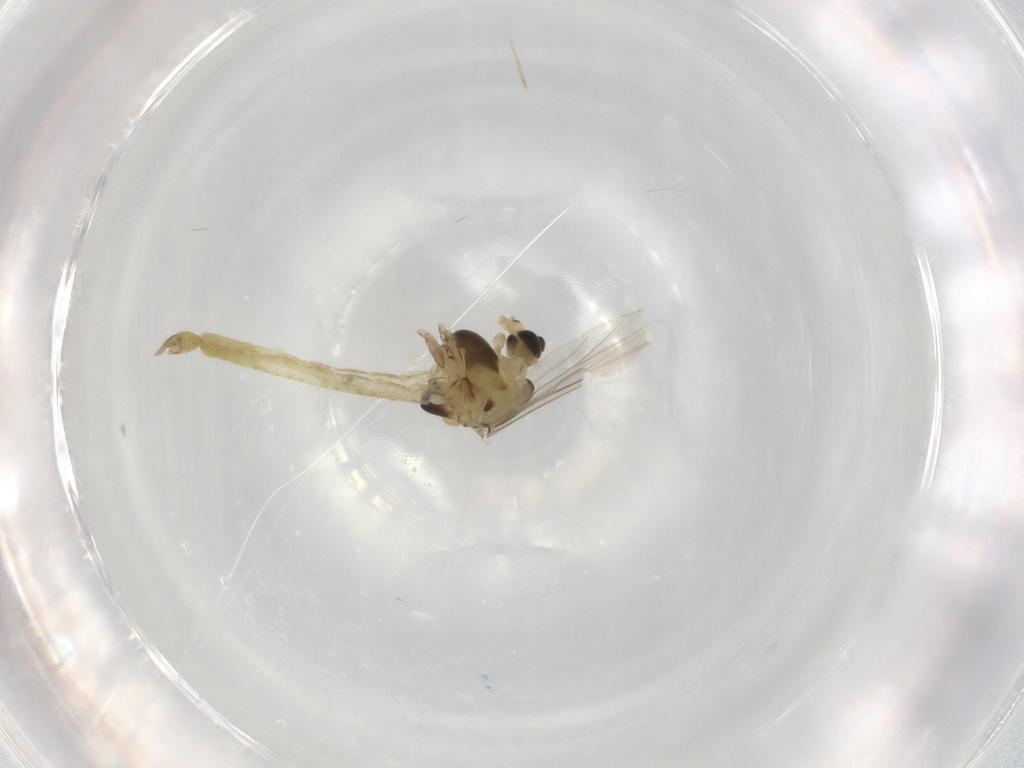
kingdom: Animalia
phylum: Arthropoda
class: Insecta
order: Diptera
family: Chironomidae
